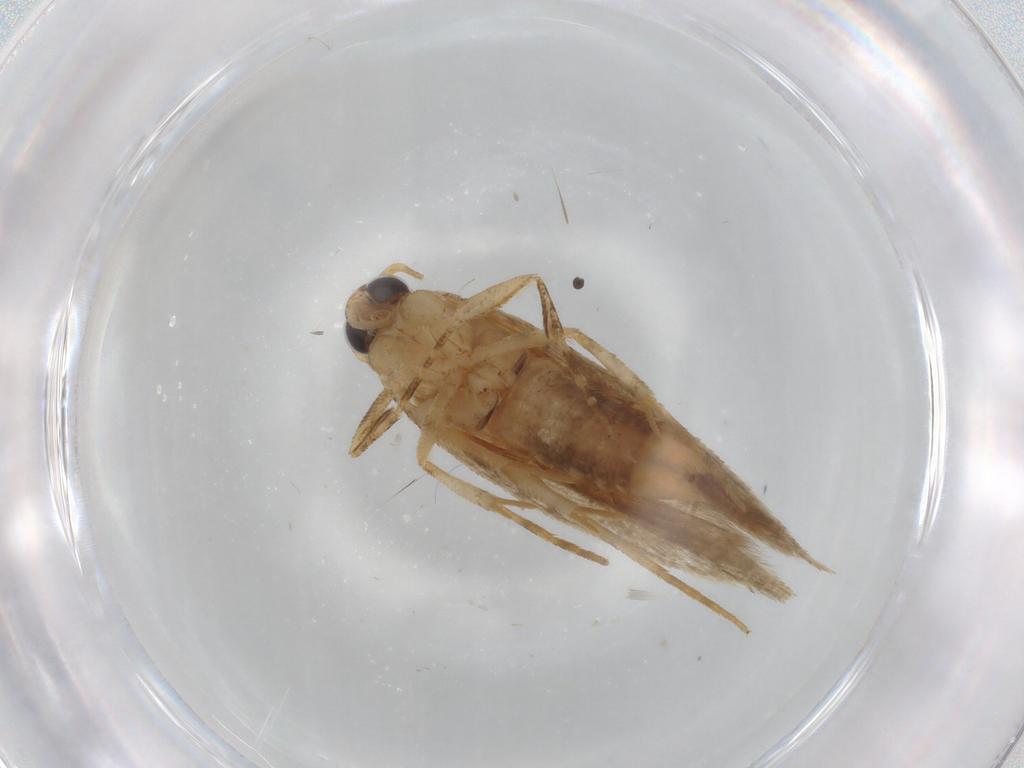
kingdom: Animalia
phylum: Arthropoda
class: Insecta
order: Lepidoptera
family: Gelechiidae
